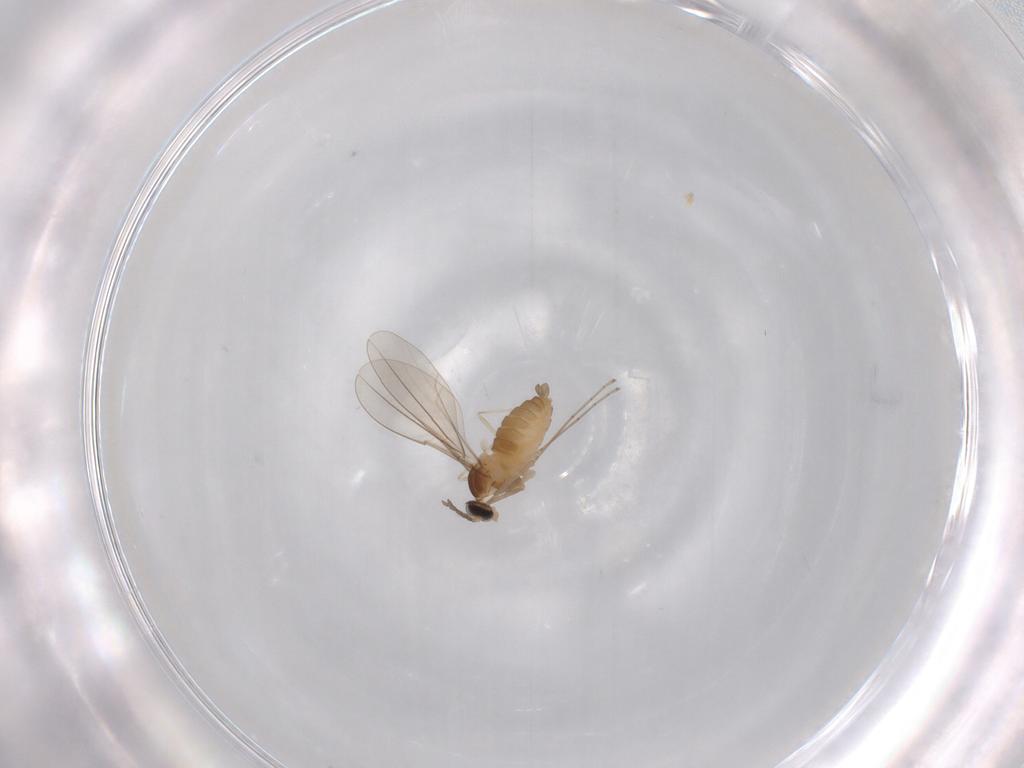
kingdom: Animalia
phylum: Arthropoda
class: Insecta
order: Diptera
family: Cecidomyiidae
